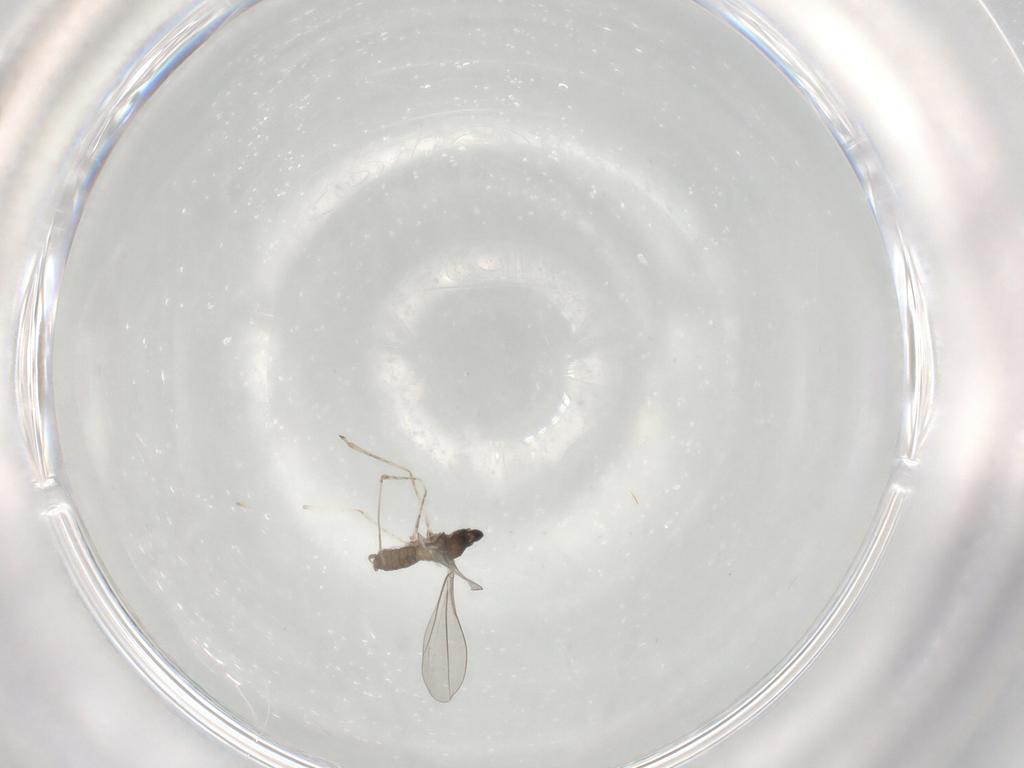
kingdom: Animalia
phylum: Arthropoda
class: Insecta
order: Diptera
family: Cecidomyiidae
